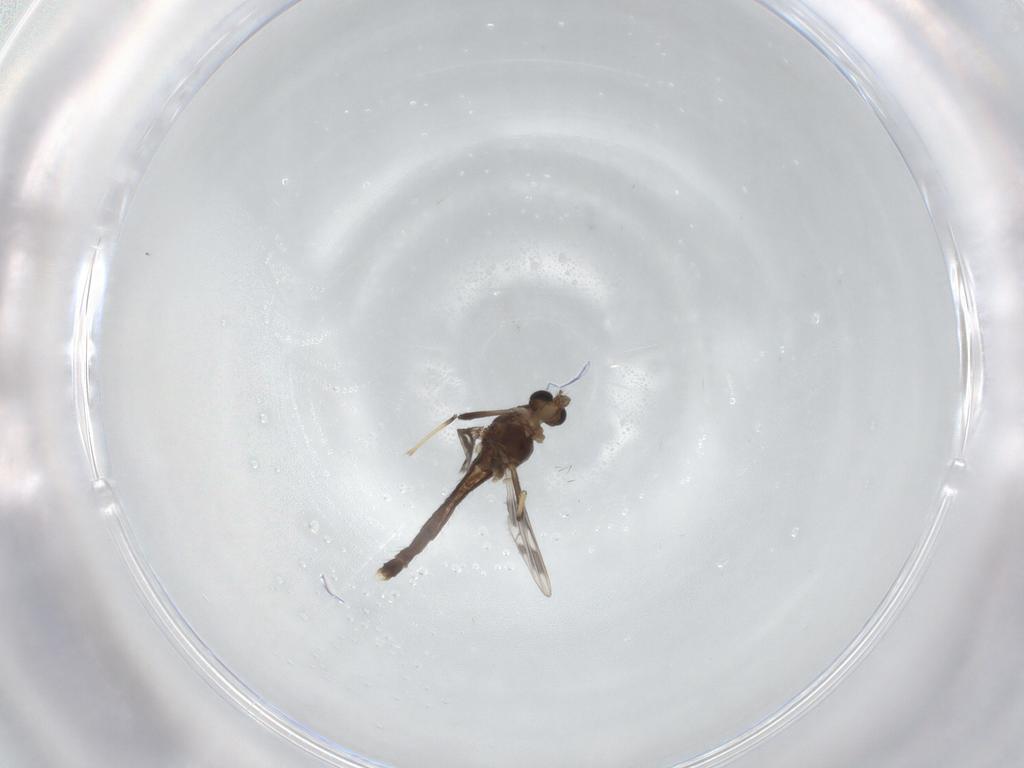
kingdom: Animalia
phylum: Arthropoda
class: Insecta
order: Diptera
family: Chironomidae
